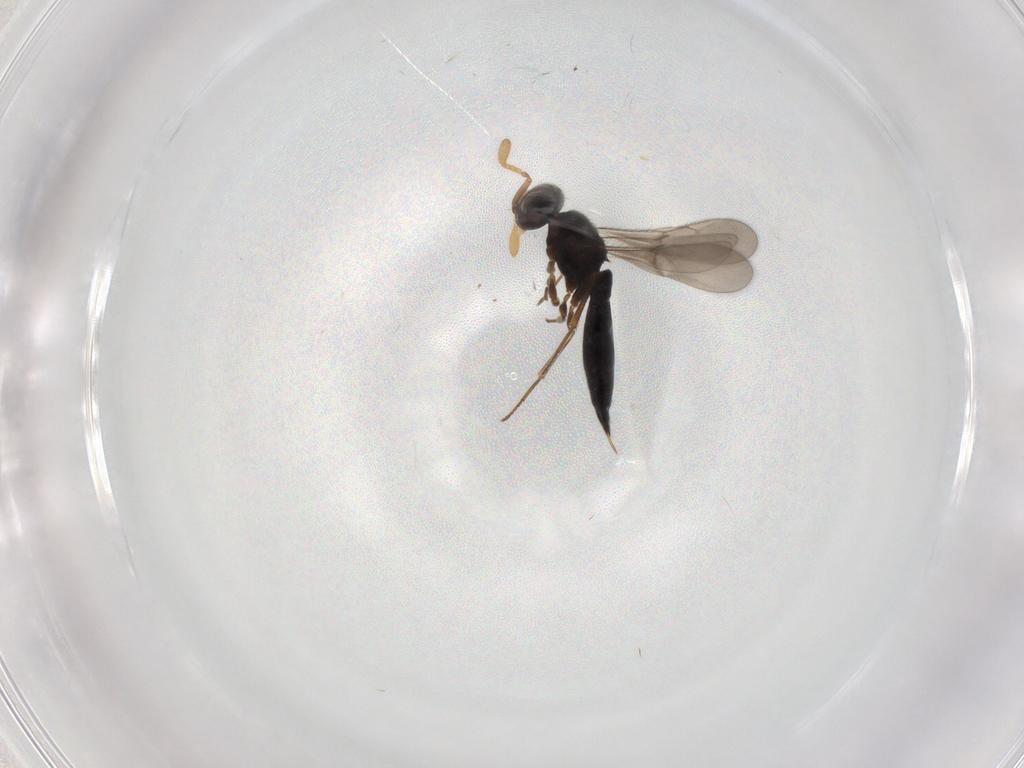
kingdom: Animalia
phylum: Arthropoda
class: Insecta
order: Hymenoptera
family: Scelionidae
